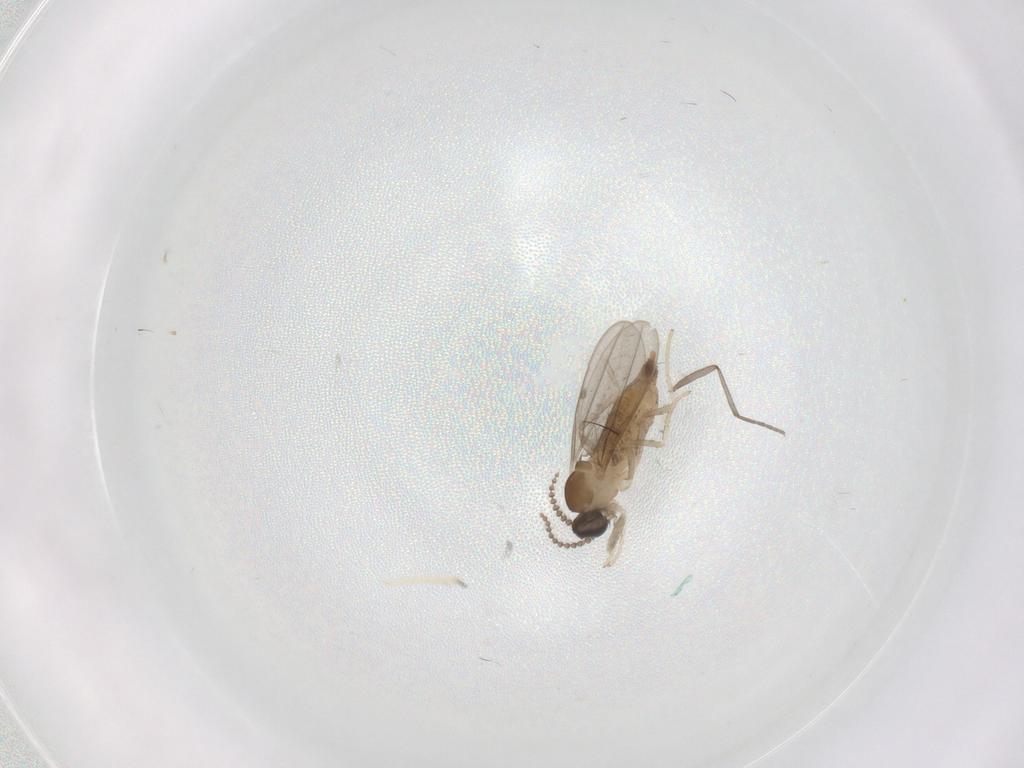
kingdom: Animalia
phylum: Arthropoda
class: Insecta
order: Diptera
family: Sciaridae
